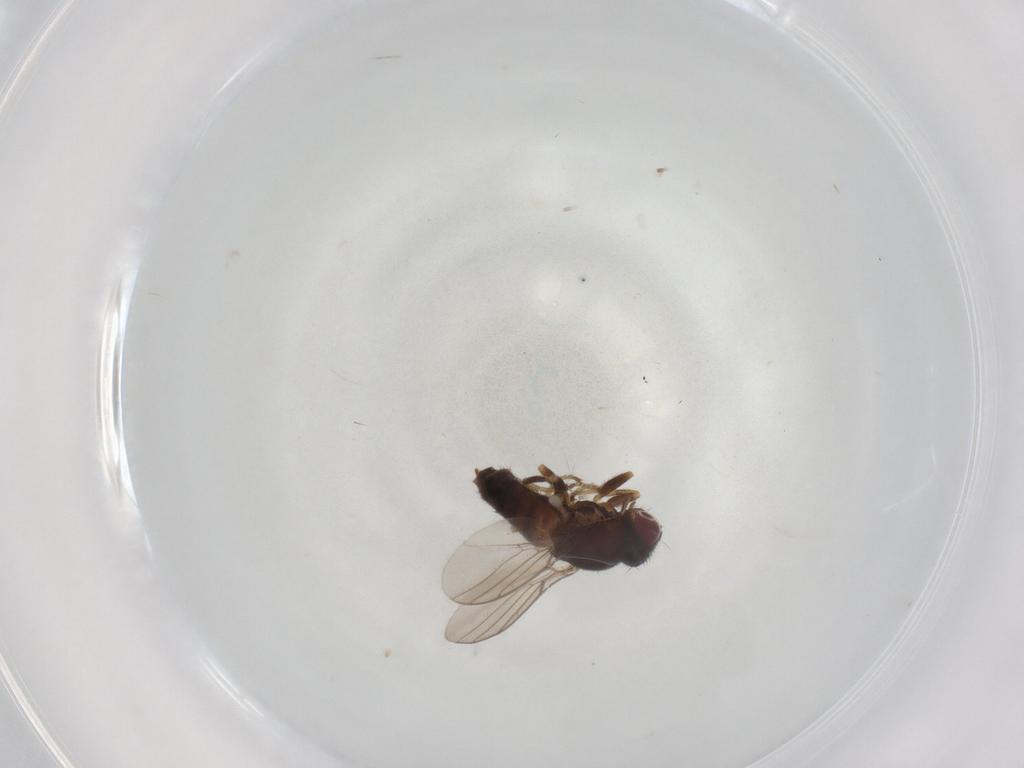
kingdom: Animalia
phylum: Arthropoda
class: Insecta
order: Diptera
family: Chloropidae
